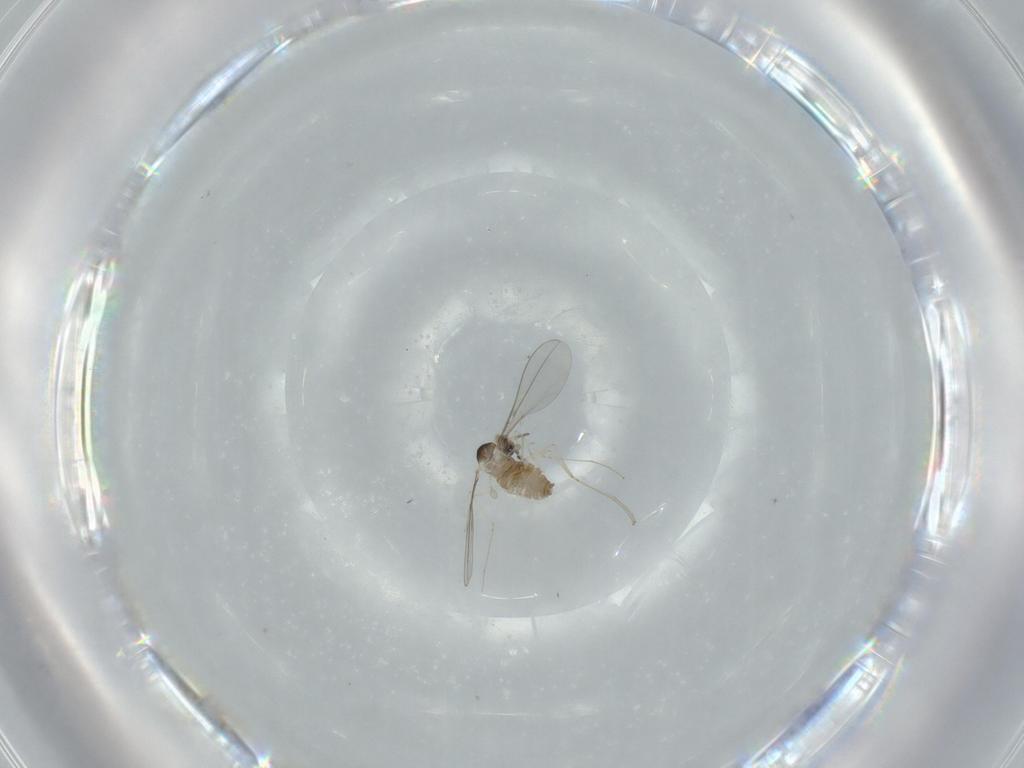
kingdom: Animalia
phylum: Arthropoda
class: Insecta
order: Diptera
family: Cecidomyiidae
